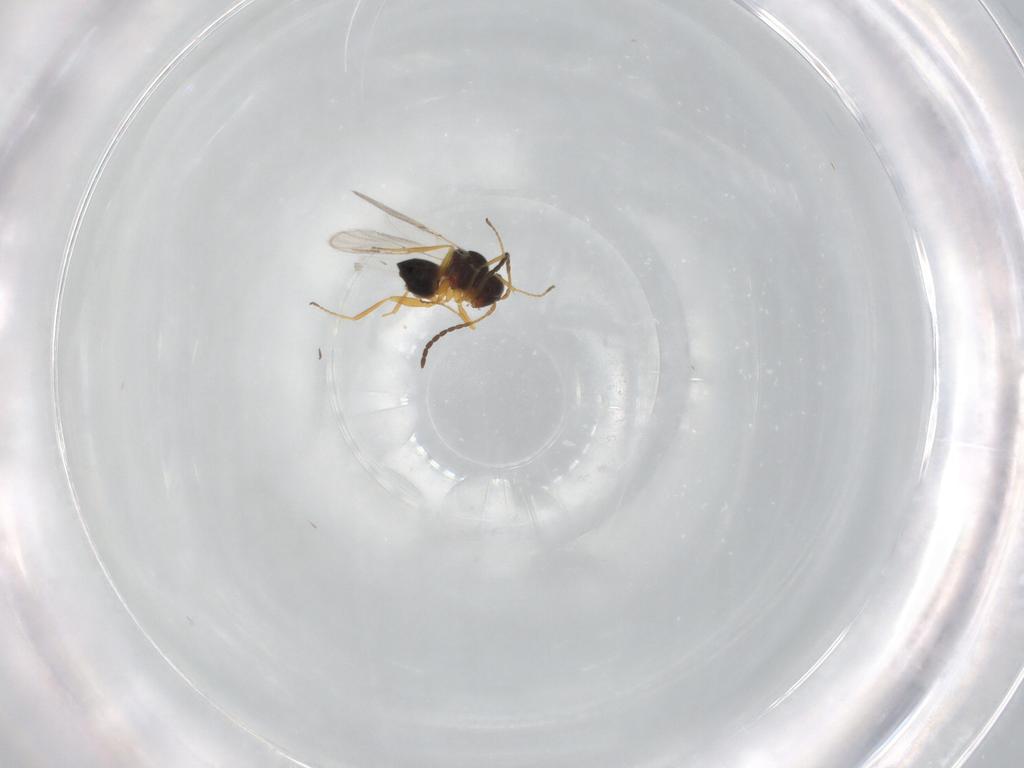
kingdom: Animalia
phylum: Arthropoda
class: Insecta
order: Hymenoptera
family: Figitidae
